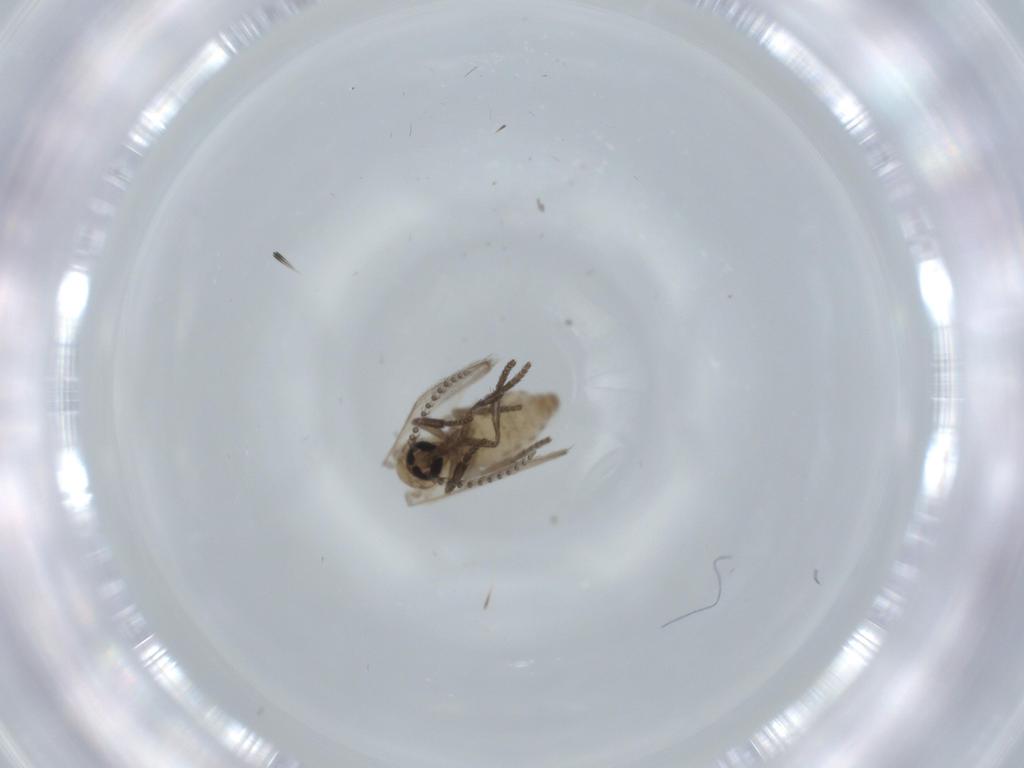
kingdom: Animalia
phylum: Arthropoda
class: Insecta
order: Diptera
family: Psychodidae
